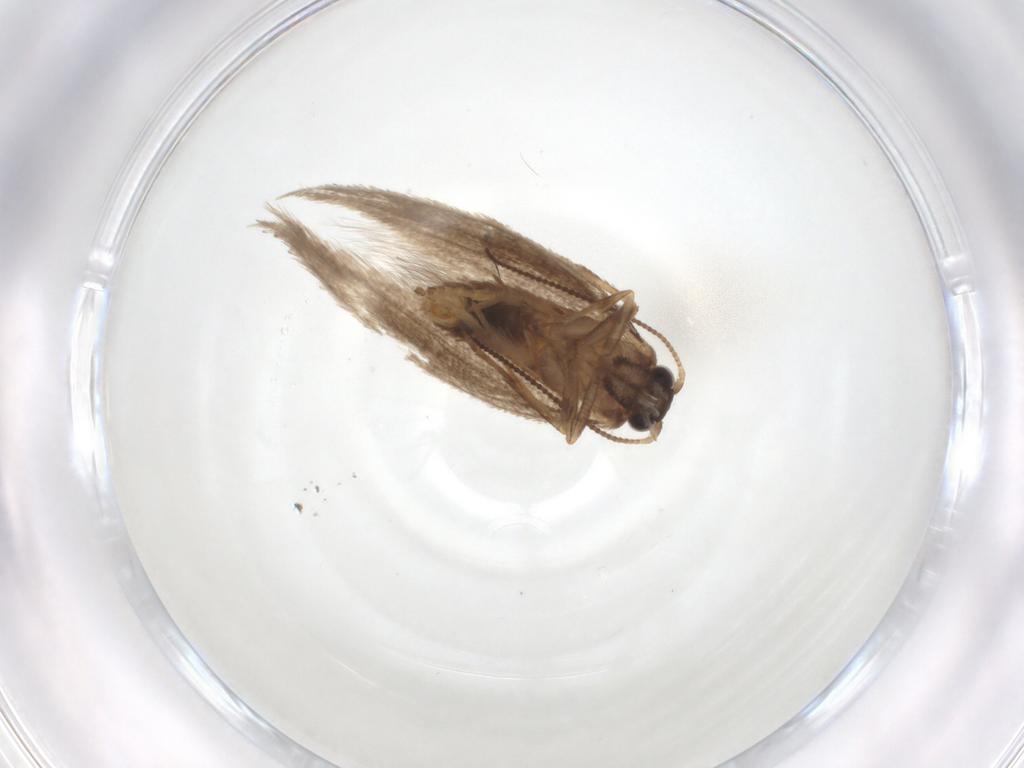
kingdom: Animalia
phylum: Arthropoda
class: Insecta
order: Lepidoptera
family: Nepticulidae
